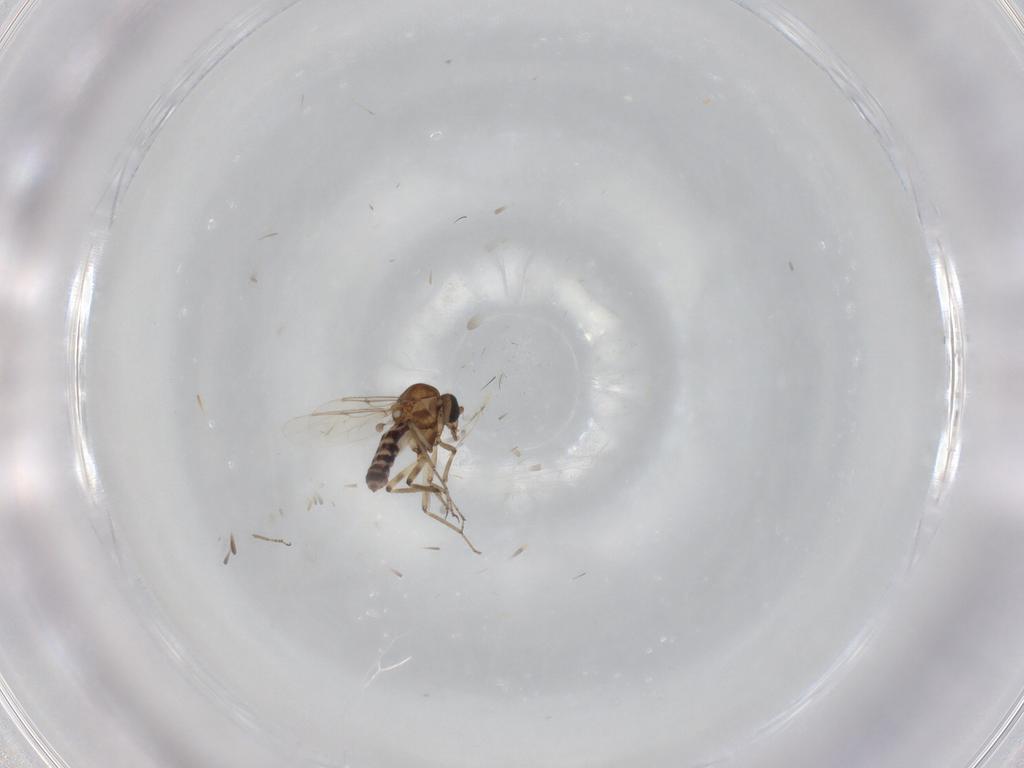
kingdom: Animalia
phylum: Arthropoda
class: Insecta
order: Diptera
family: Ceratopogonidae
